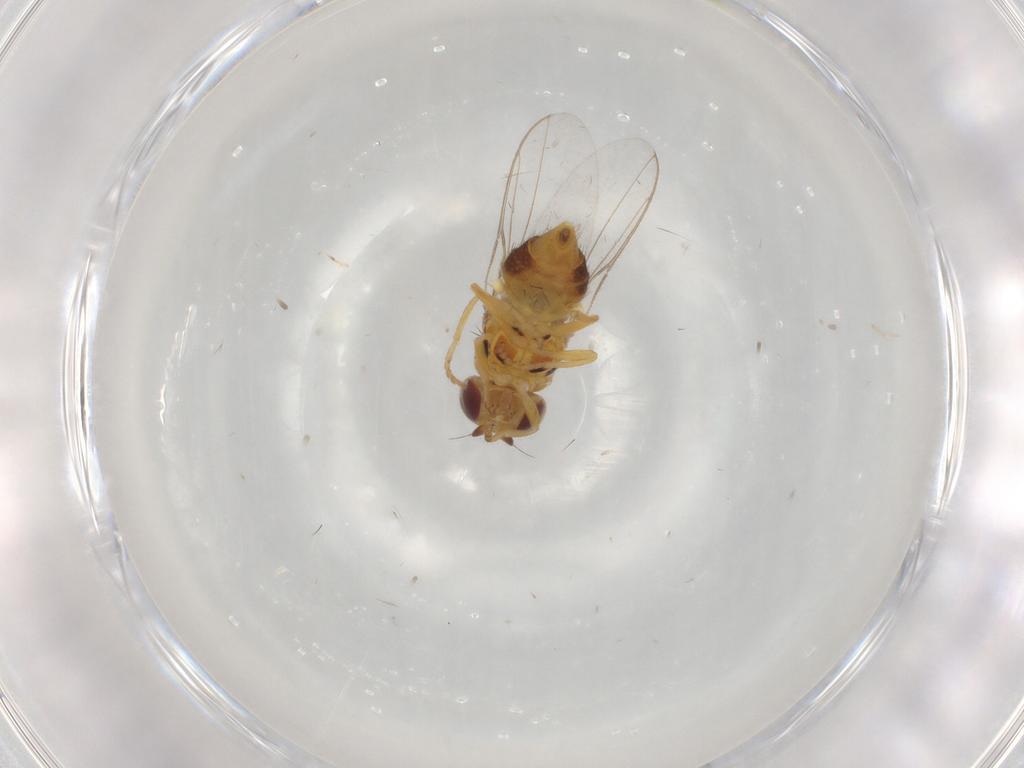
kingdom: Animalia
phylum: Arthropoda
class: Insecta
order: Diptera
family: Chloropidae
